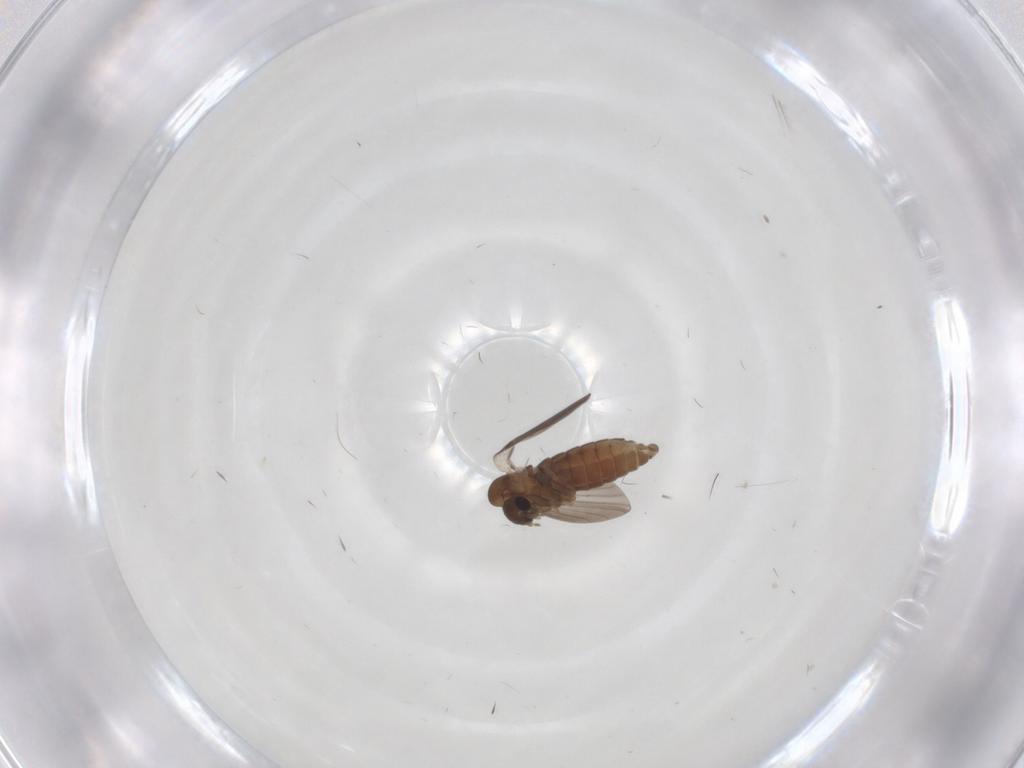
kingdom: Animalia
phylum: Arthropoda
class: Insecta
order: Diptera
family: Psychodidae
